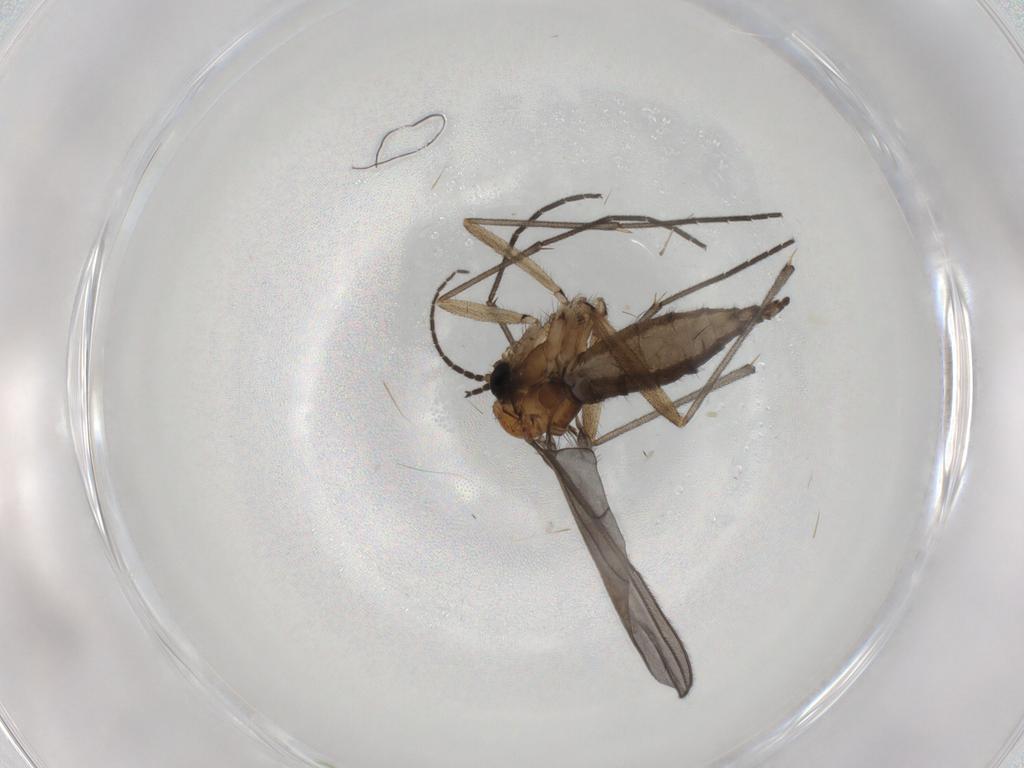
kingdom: Animalia
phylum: Arthropoda
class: Insecta
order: Diptera
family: Sciaridae
